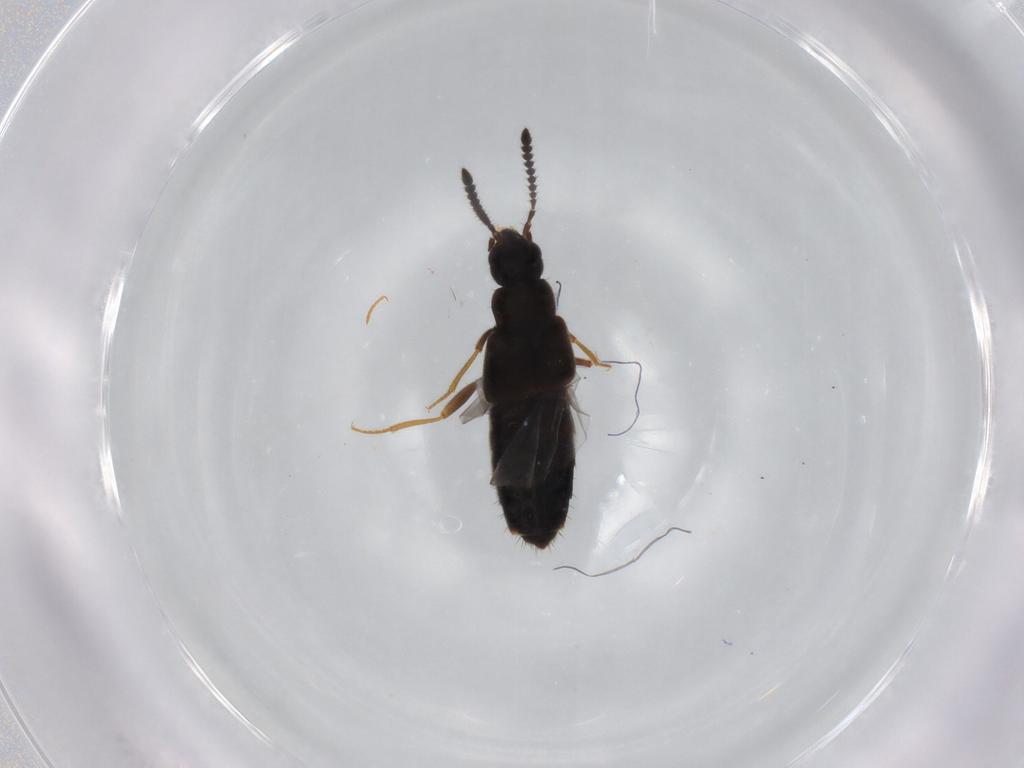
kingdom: Animalia
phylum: Arthropoda
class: Insecta
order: Coleoptera
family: Staphylinidae
